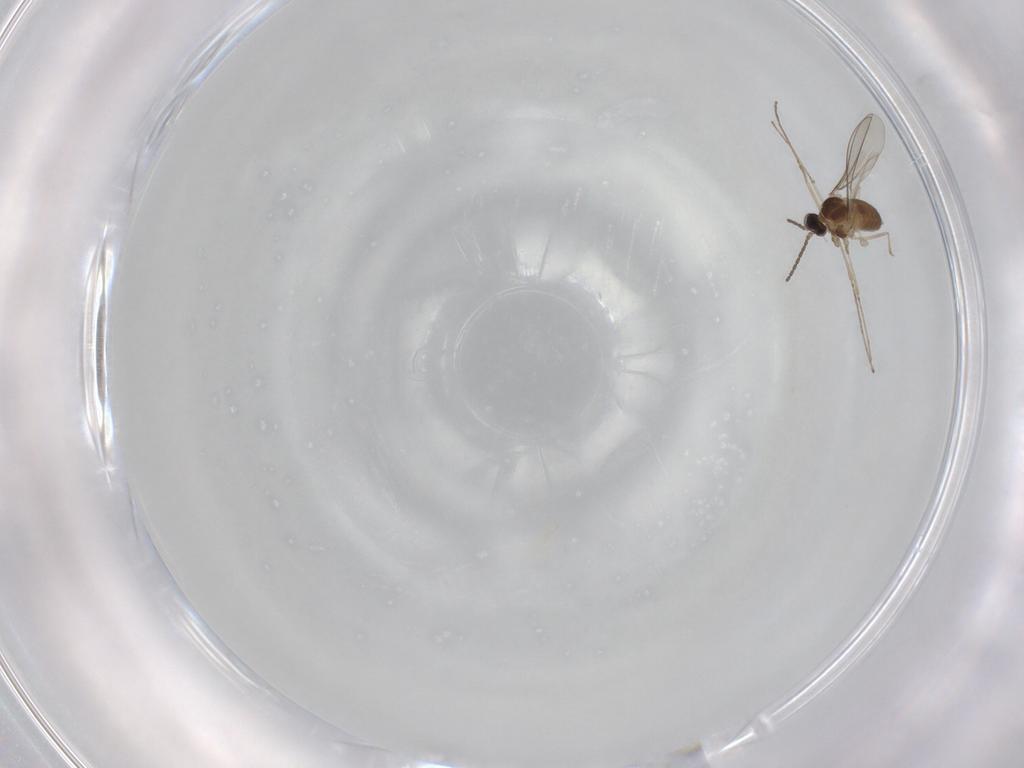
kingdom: Animalia
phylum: Arthropoda
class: Insecta
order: Diptera
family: Cecidomyiidae
